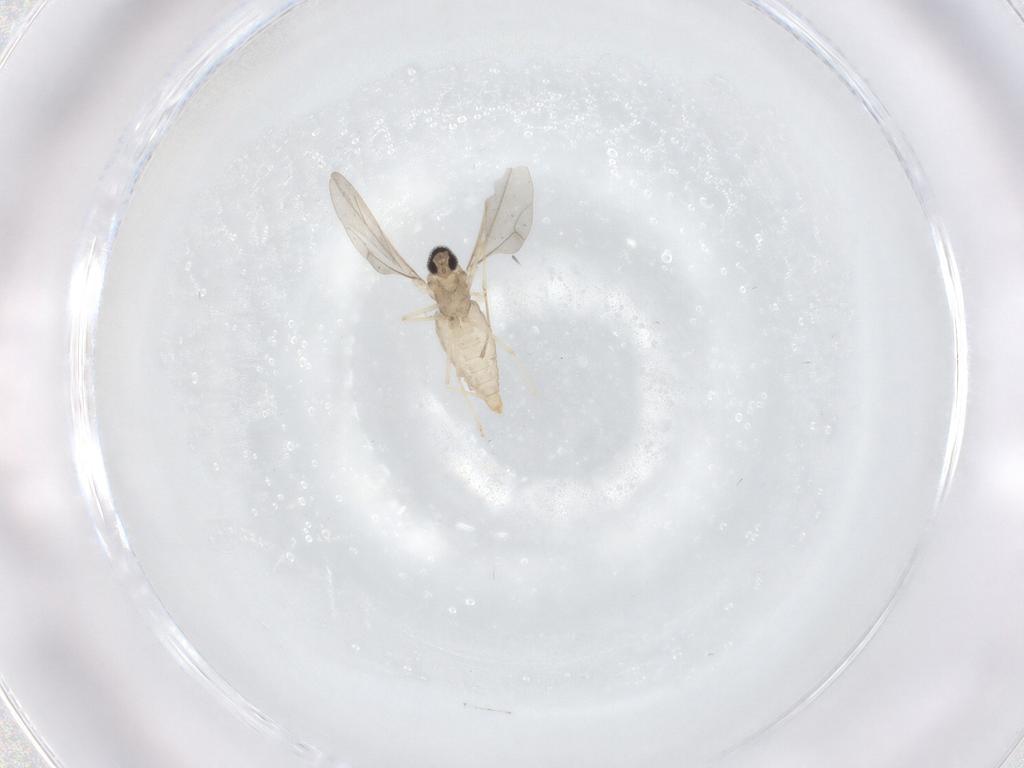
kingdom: Animalia
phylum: Arthropoda
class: Insecta
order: Diptera
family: Cecidomyiidae
